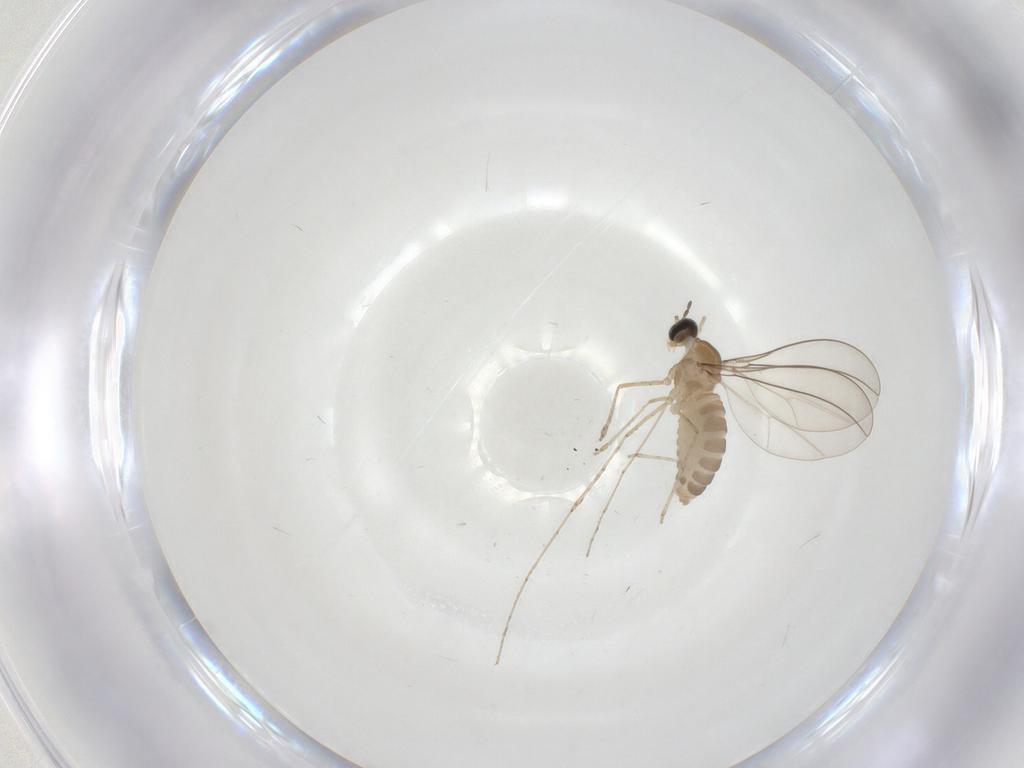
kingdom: Animalia
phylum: Arthropoda
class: Insecta
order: Diptera
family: Cecidomyiidae
